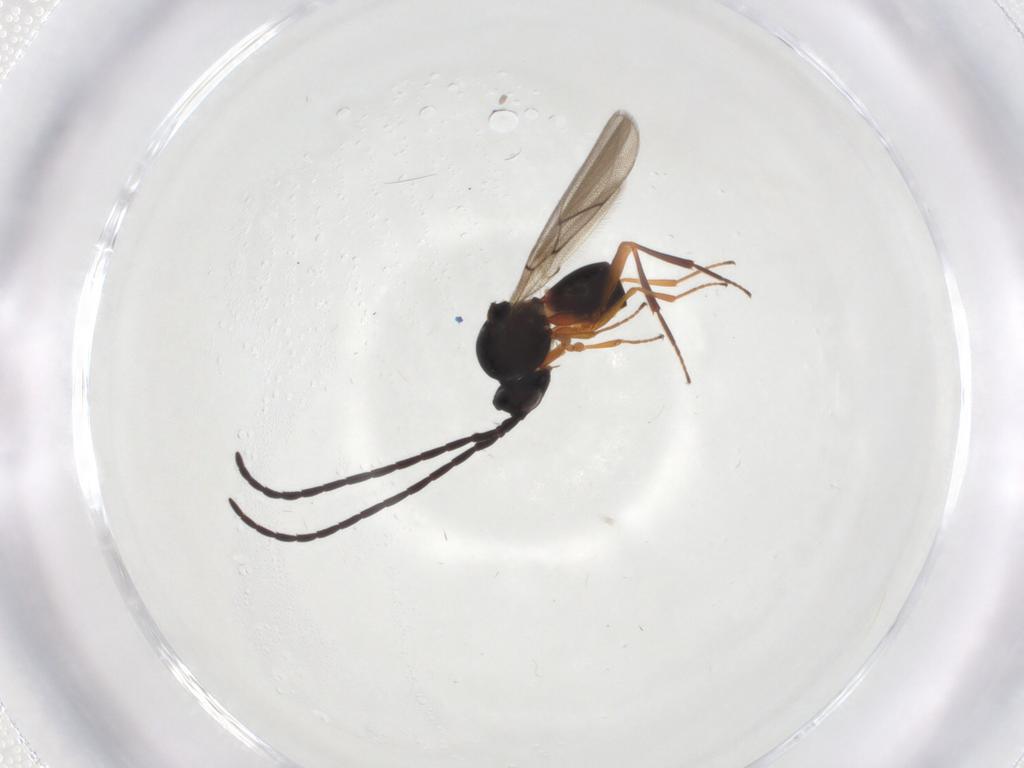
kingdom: Animalia
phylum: Arthropoda
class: Insecta
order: Hymenoptera
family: Figitidae
